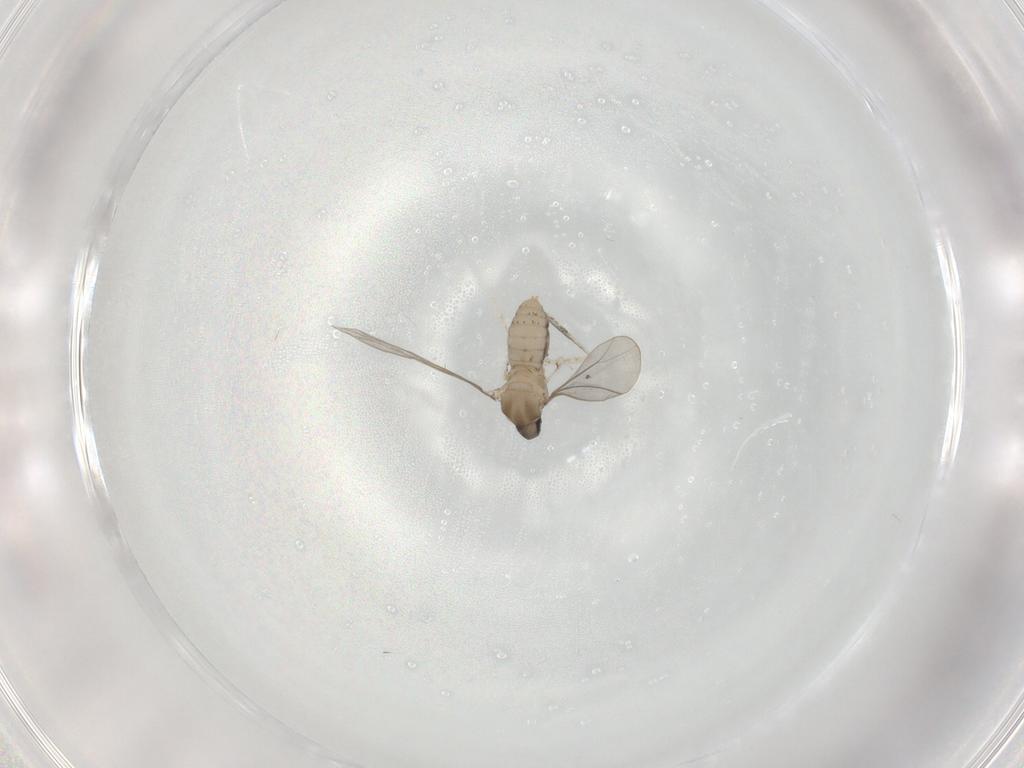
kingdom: Animalia
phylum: Arthropoda
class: Insecta
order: Diptera
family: Cecidomyiidae
